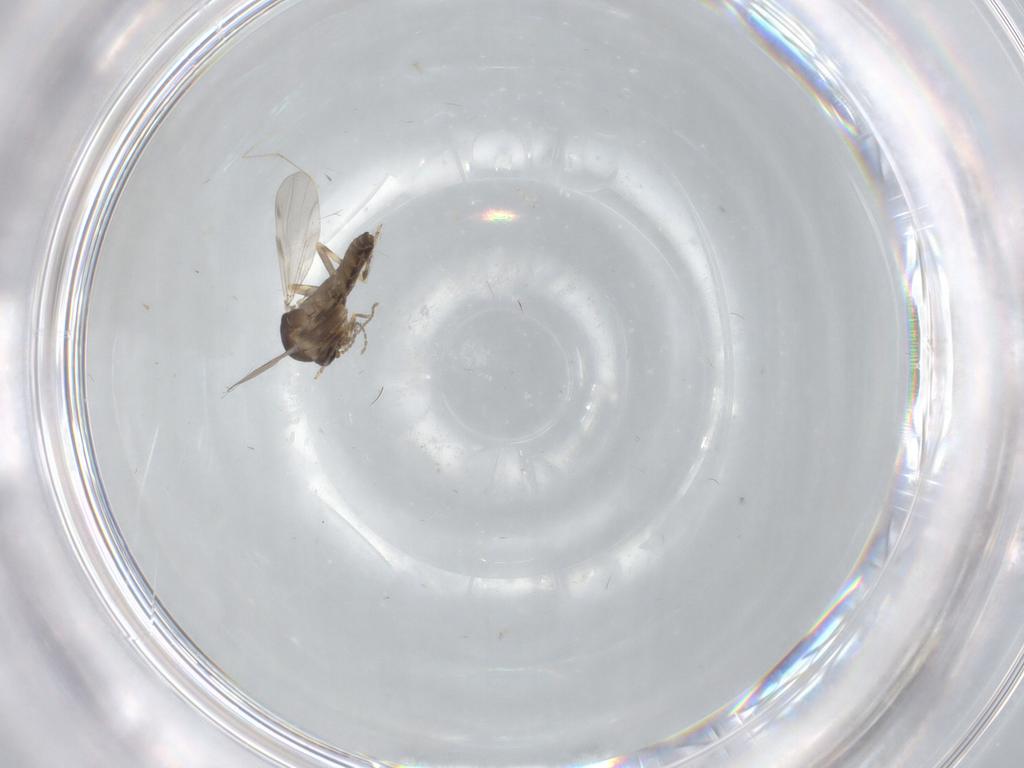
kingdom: Animalia
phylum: Arthropoda
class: Insecta
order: Diptera
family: Ceratopogonidae
